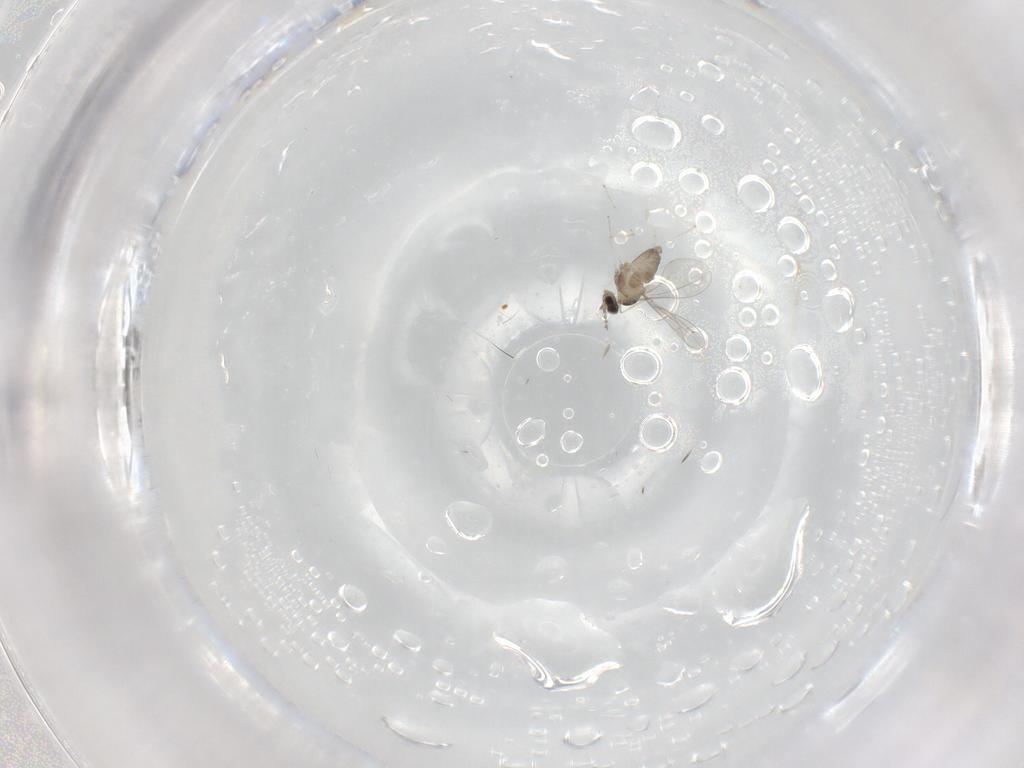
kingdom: Animalia
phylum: Arthropoda
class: Insecta
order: Diptera
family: Cecidomyiidae
